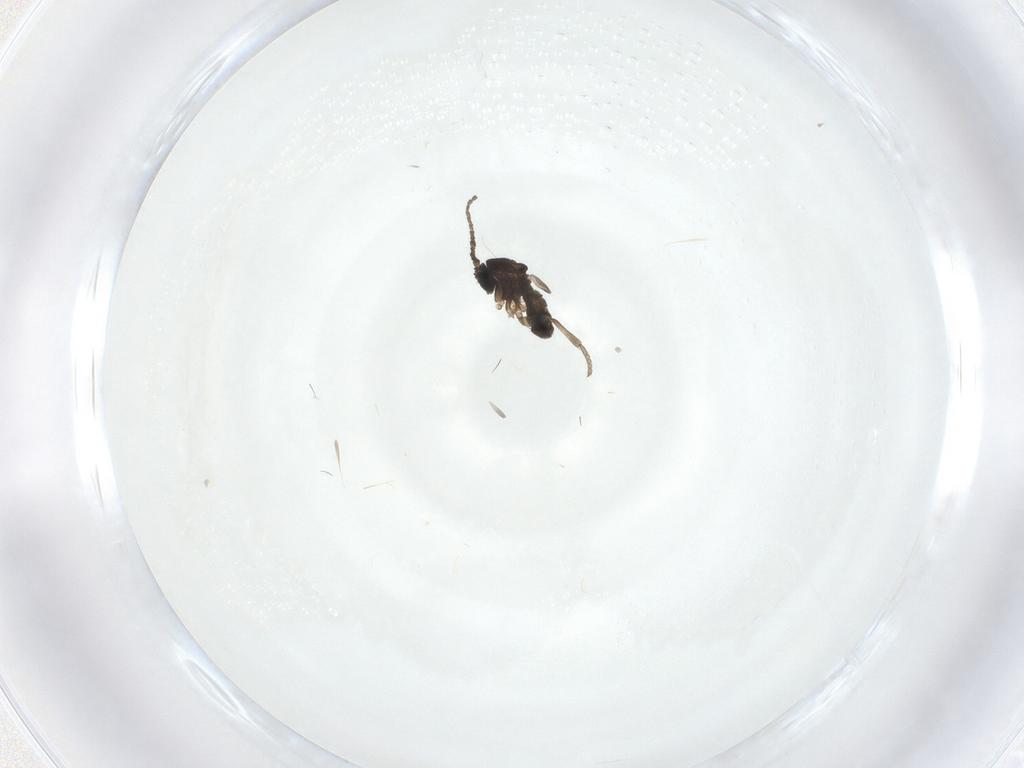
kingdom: Animalia
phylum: Arthropoda
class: Insecta
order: Diptera
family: Sciaridae
